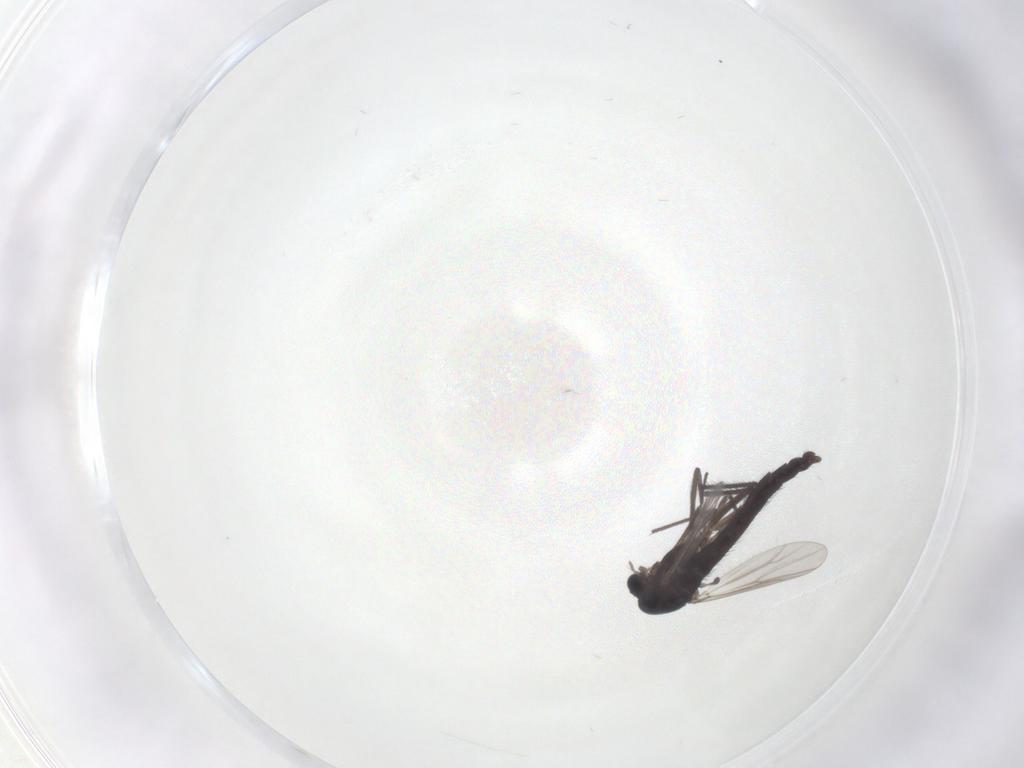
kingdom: Animalia
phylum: Arthropoda
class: Insecta
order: Diptera
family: Chironomidae
